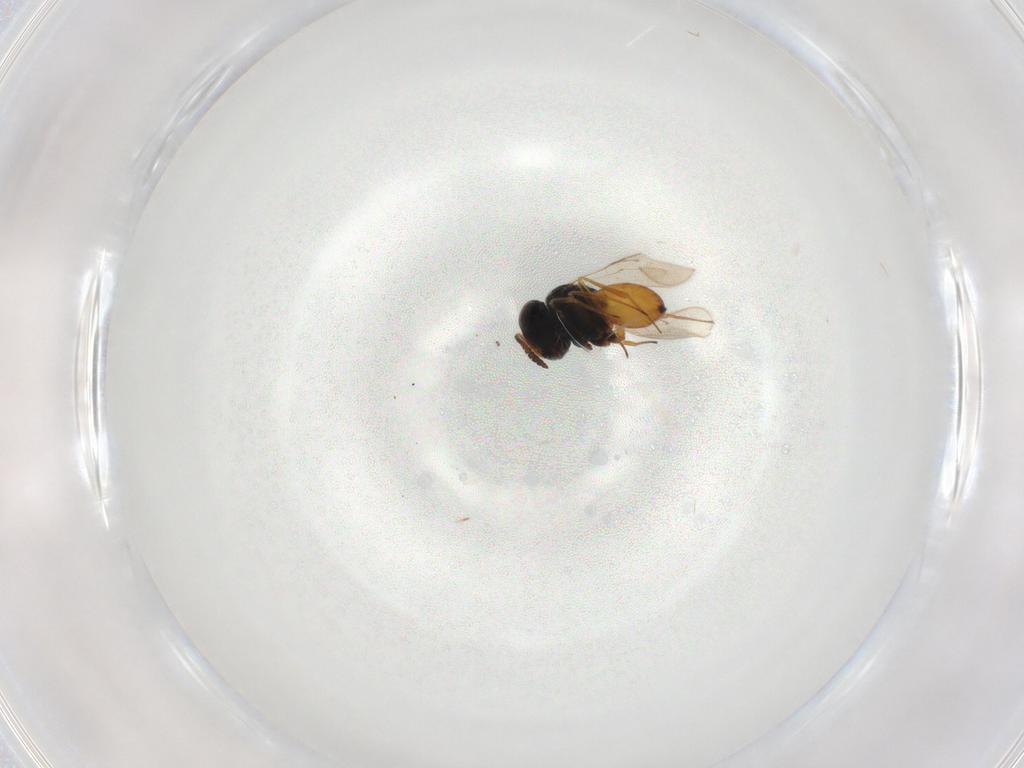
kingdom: Animalia
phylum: Arthropoda
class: Insecta
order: Hymenoptera
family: Scelionidae
